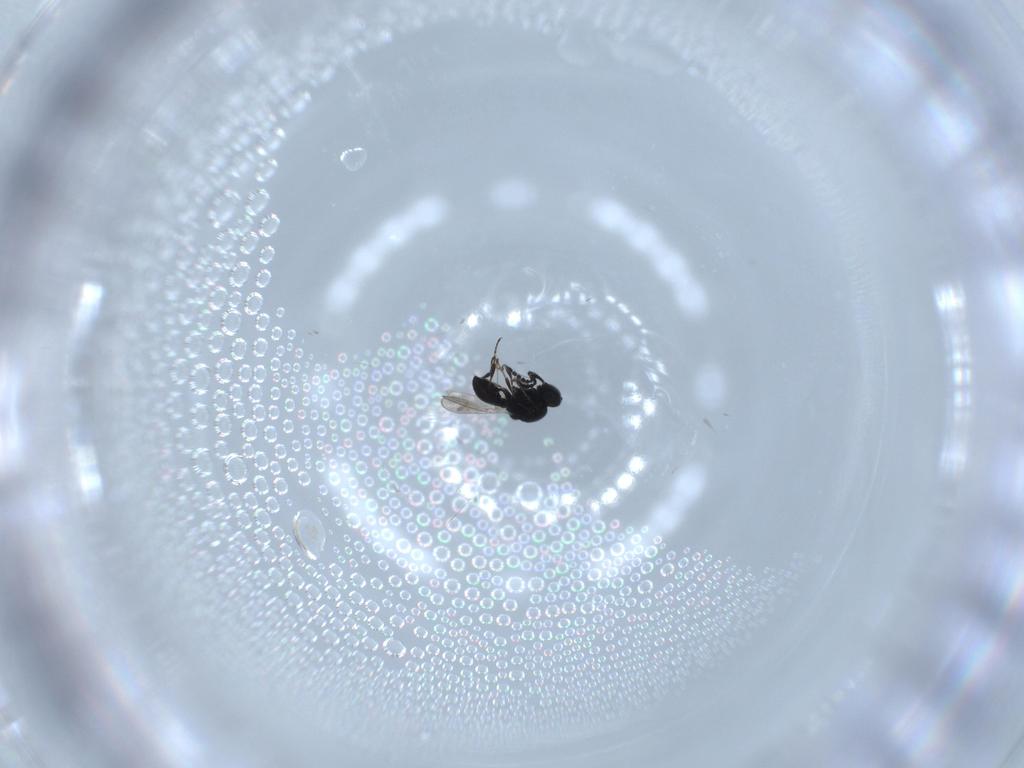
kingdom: Animalia
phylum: Arthropoda
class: Insecta
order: Hymenoptera
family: Platygastridae
